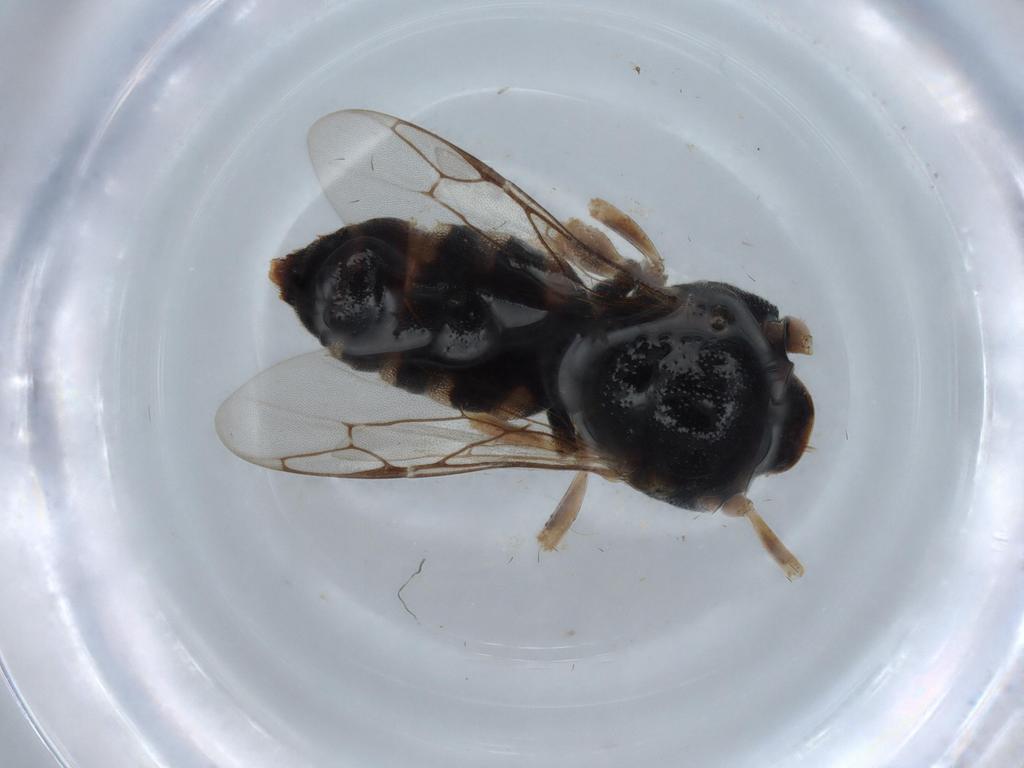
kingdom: Animalia
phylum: Arthropoda
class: Insecta
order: Hymenoptera
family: Crabronidae
